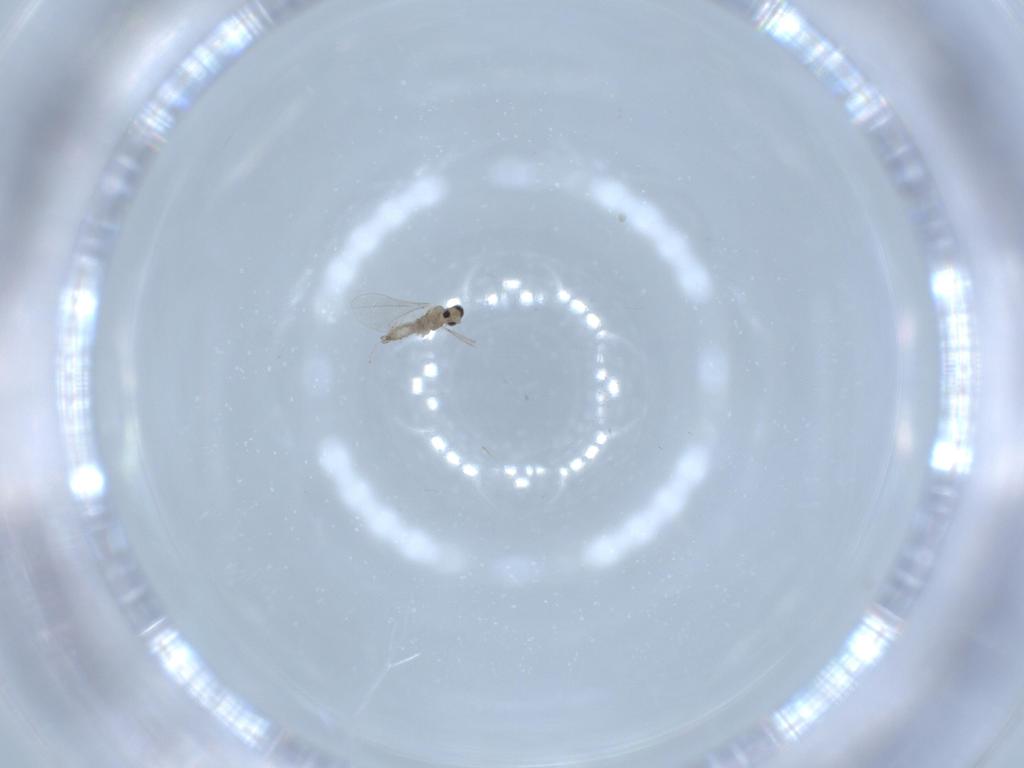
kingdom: Animalia
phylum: Arthropoda
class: Insecta
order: Diptera
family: Cecidomyiidae
